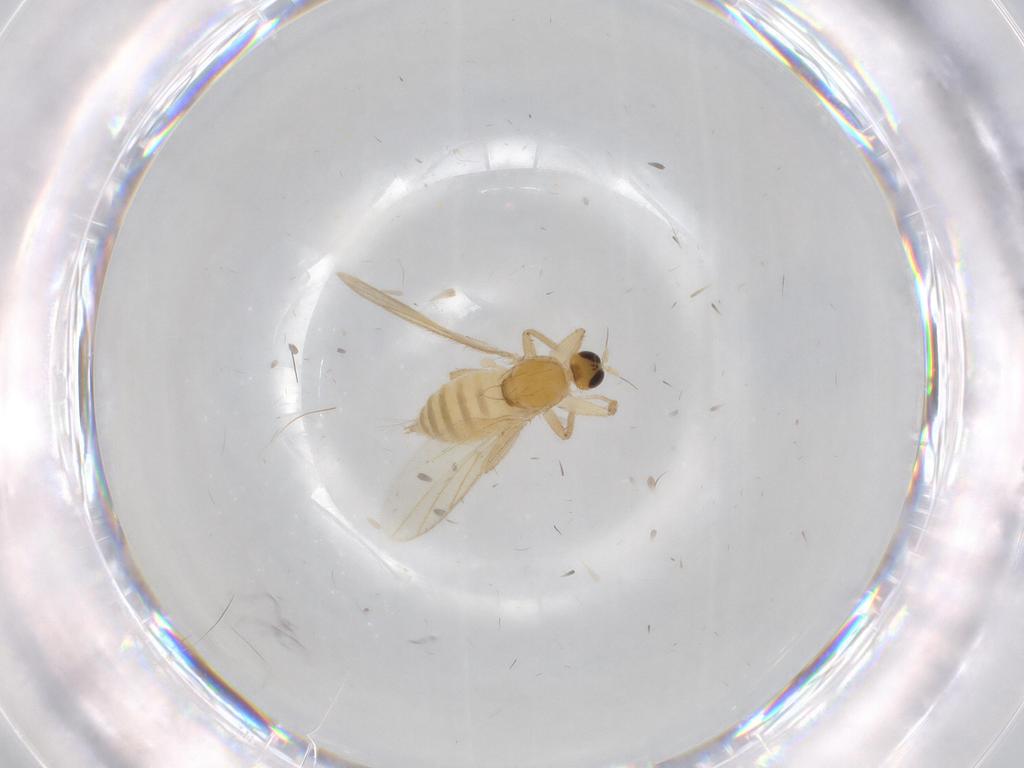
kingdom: Animalia
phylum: Arthropoda
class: Insecta
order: Diptera
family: Hybotidae
